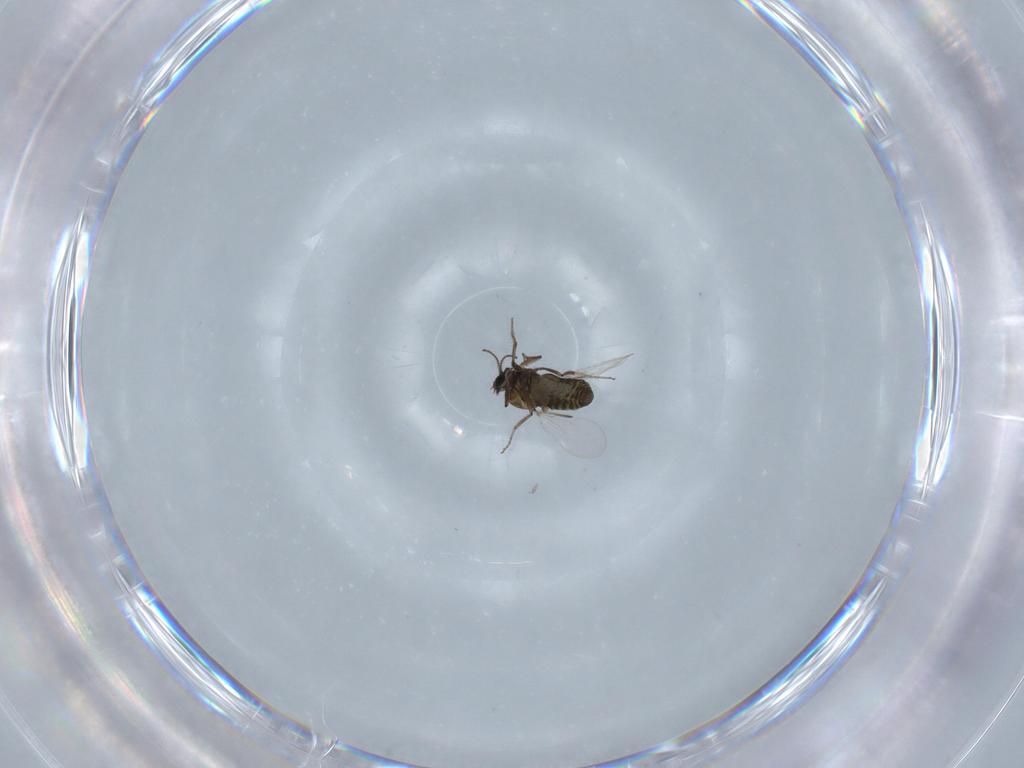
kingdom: Animalia
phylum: Arthropoda
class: Insecta
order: Diptera
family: Ceratopogonidae
